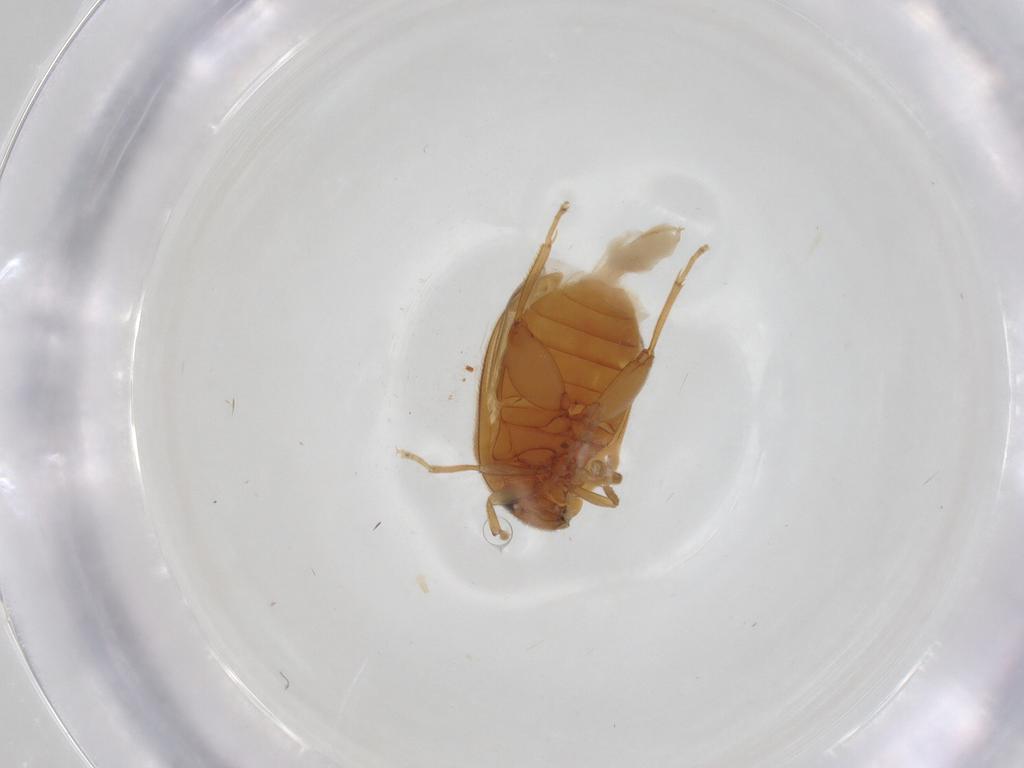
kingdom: Animalia
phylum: Arthropoda
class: Insecta
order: Coleoptera
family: Scirtidae
